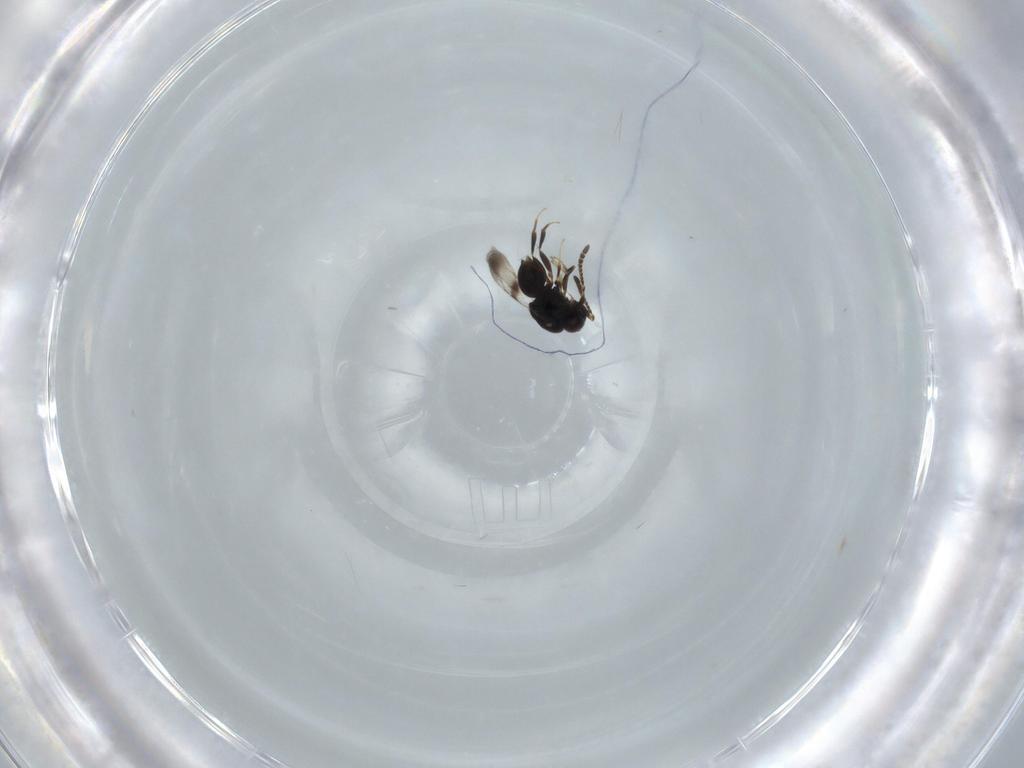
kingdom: Animalia
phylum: Arthropoda
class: Insecta
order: Hymenoptera
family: Ceraphronidae
